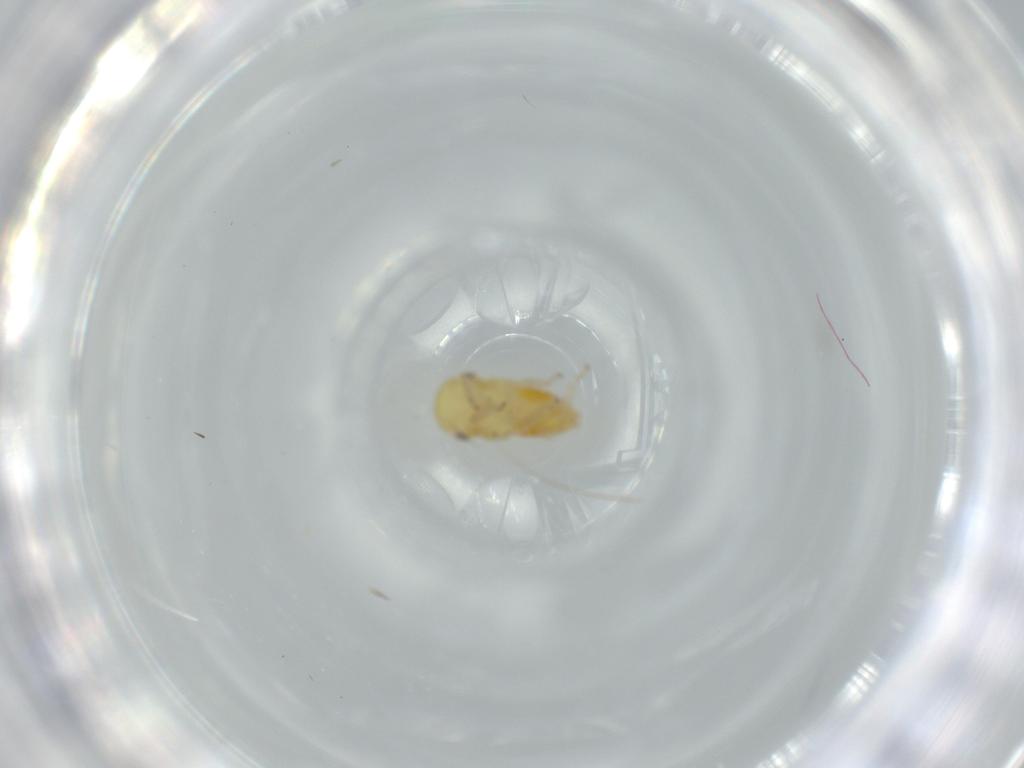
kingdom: Animalia
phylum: Arthropoda
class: Insecta
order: Hemiptera
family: Cicadellidae
